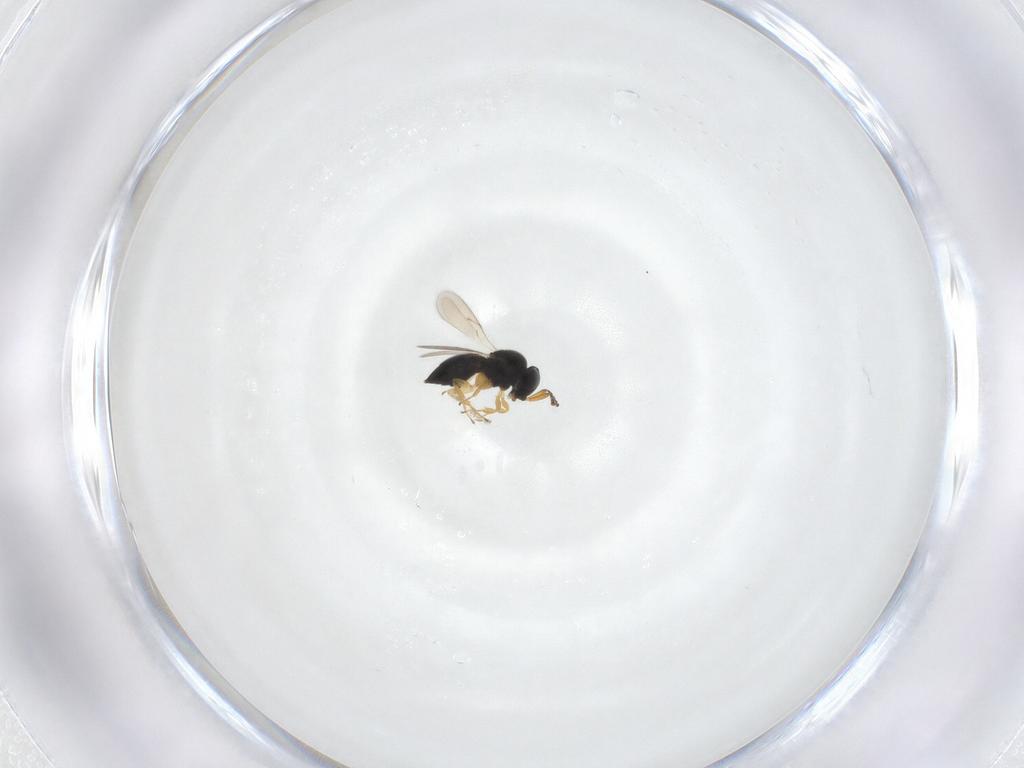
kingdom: Animalia
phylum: Arthropoda
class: Insecta
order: Hymenoptera
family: Scelionidae
